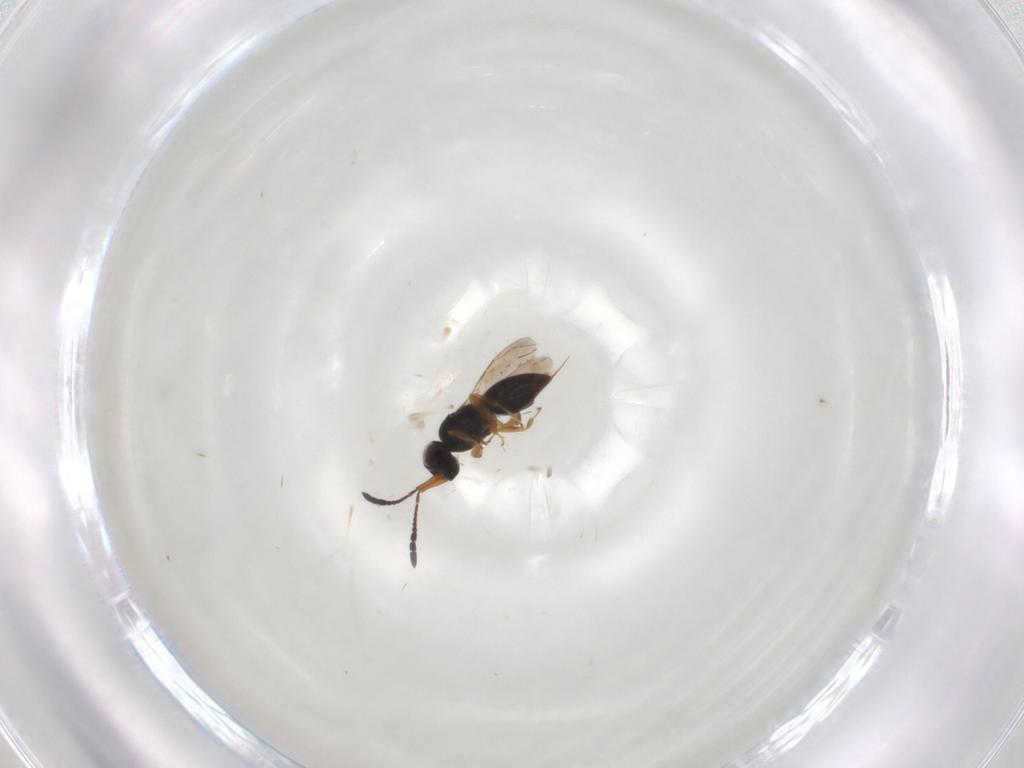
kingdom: Animalia
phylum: Arthropoda
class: Insecta
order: Hymenoptera
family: Ceraphronidae
